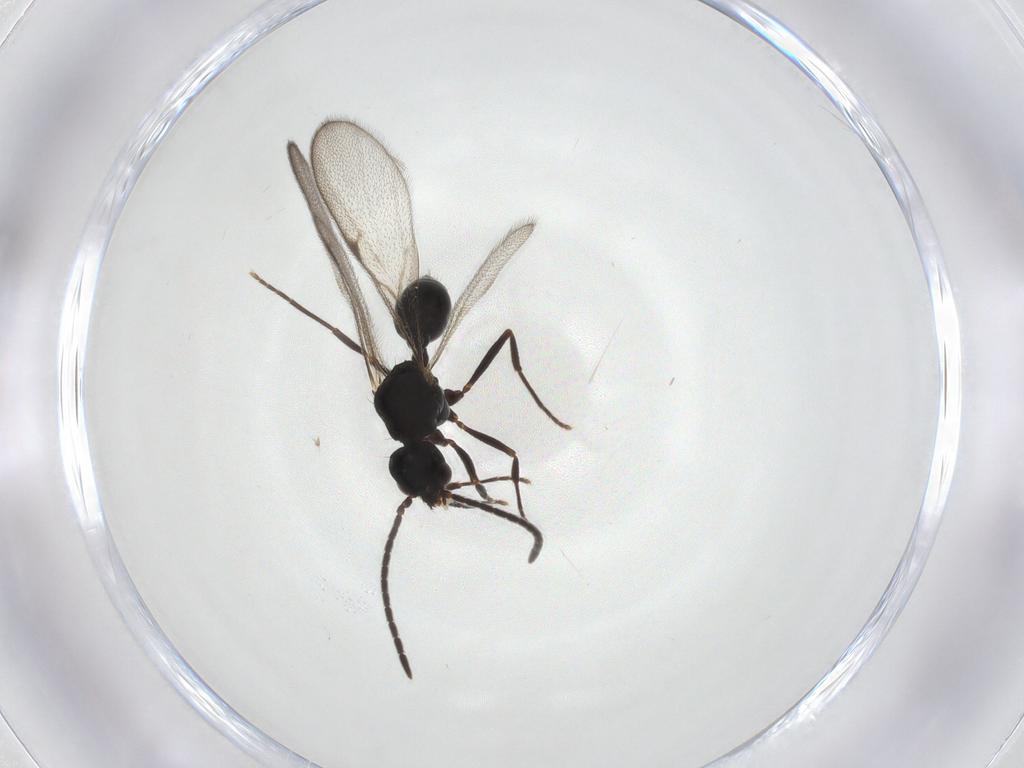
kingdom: Animalia
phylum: Arthropoda
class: Insecta
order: Hymenoptera
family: Formicidae
